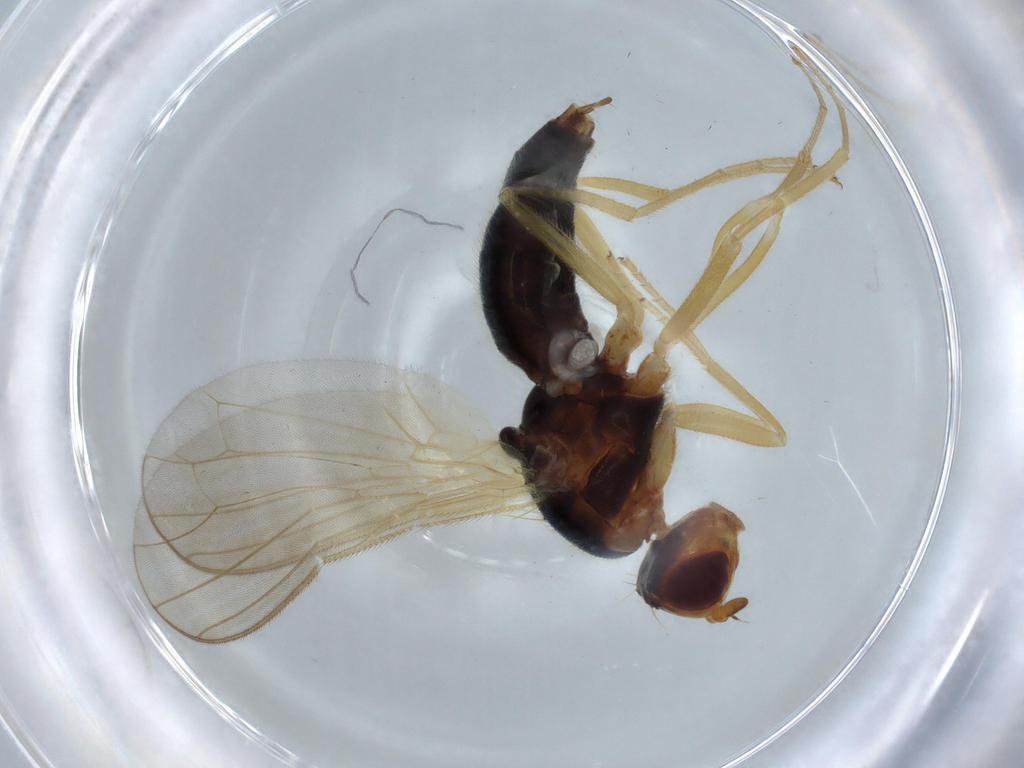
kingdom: Animalia
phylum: Arthropoda
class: Insecta
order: Diptera
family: Psilidae
